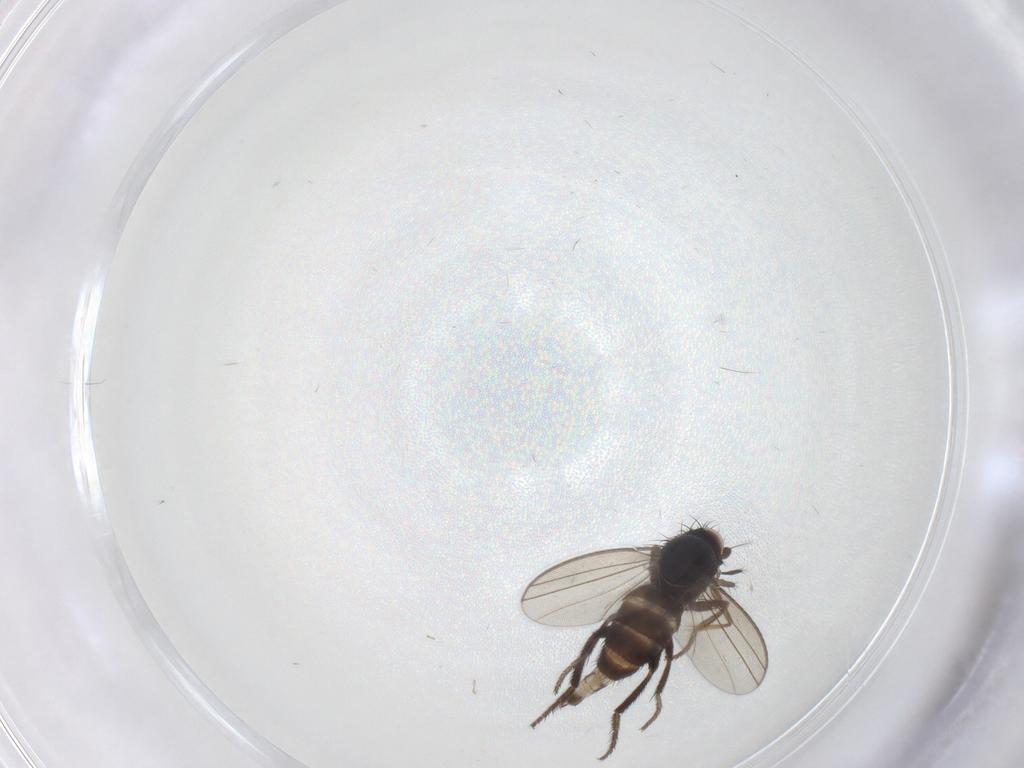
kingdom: Animalia
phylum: Arthropoda
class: Insecta
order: Diptera
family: Milichiidae
